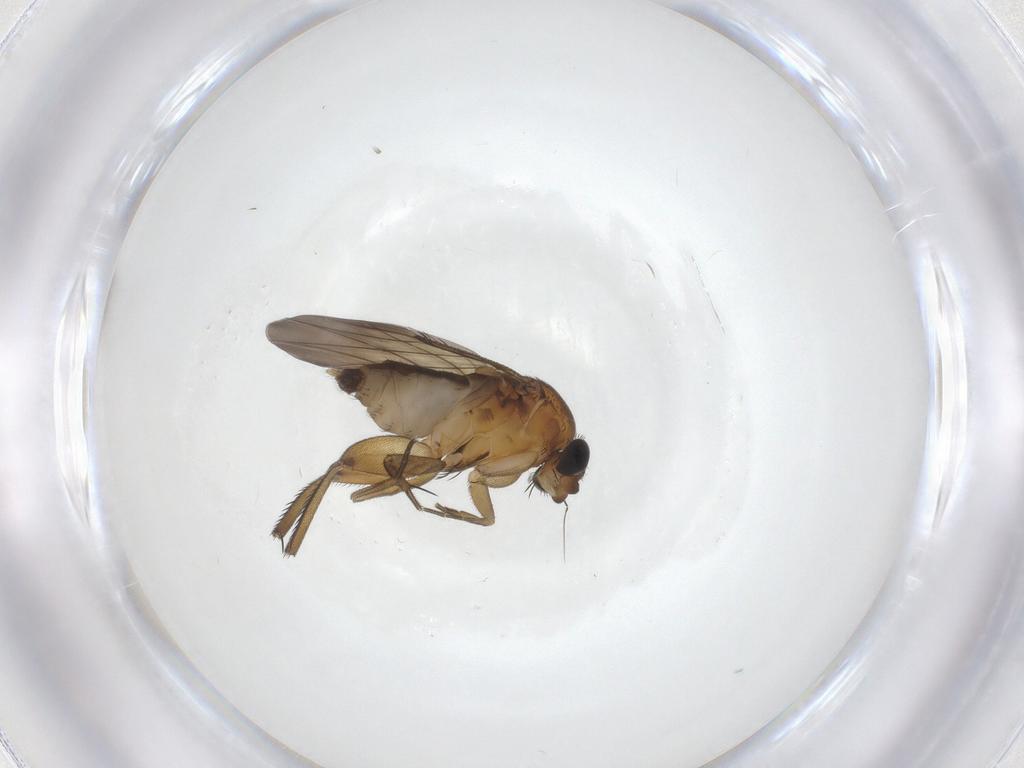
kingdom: Animalia
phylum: Arthropoda
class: Insecta
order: Diptera
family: Phoridae
